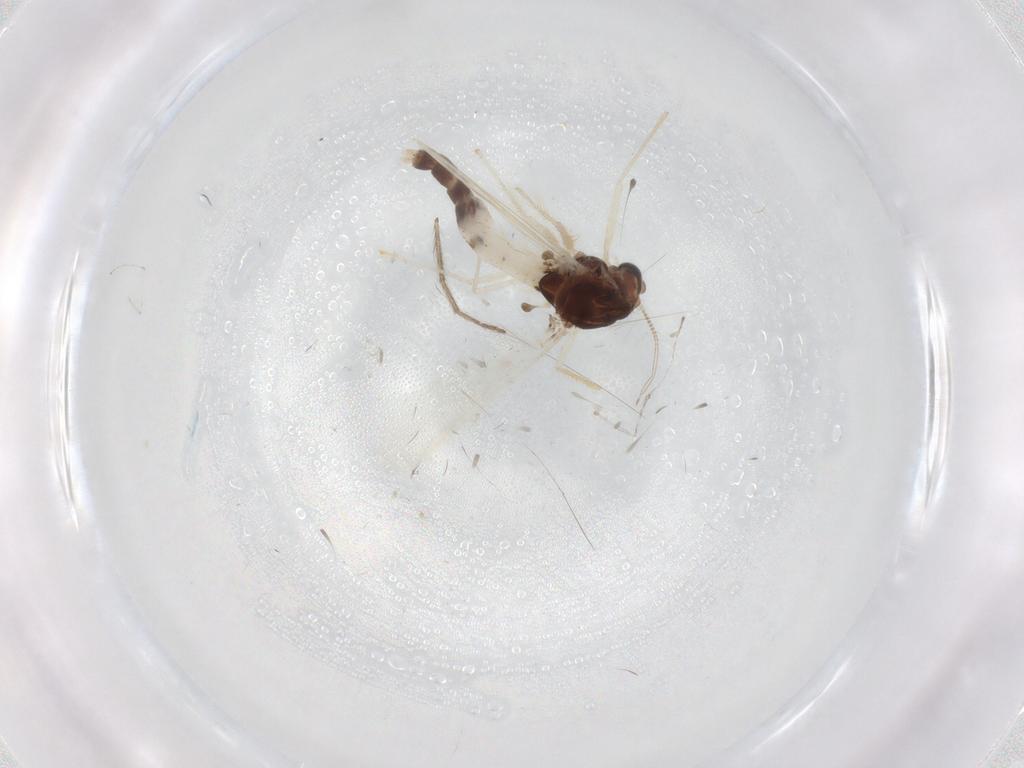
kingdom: Animalia
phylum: Arthropoda
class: Insecta
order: Diptera
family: Chironomidae
